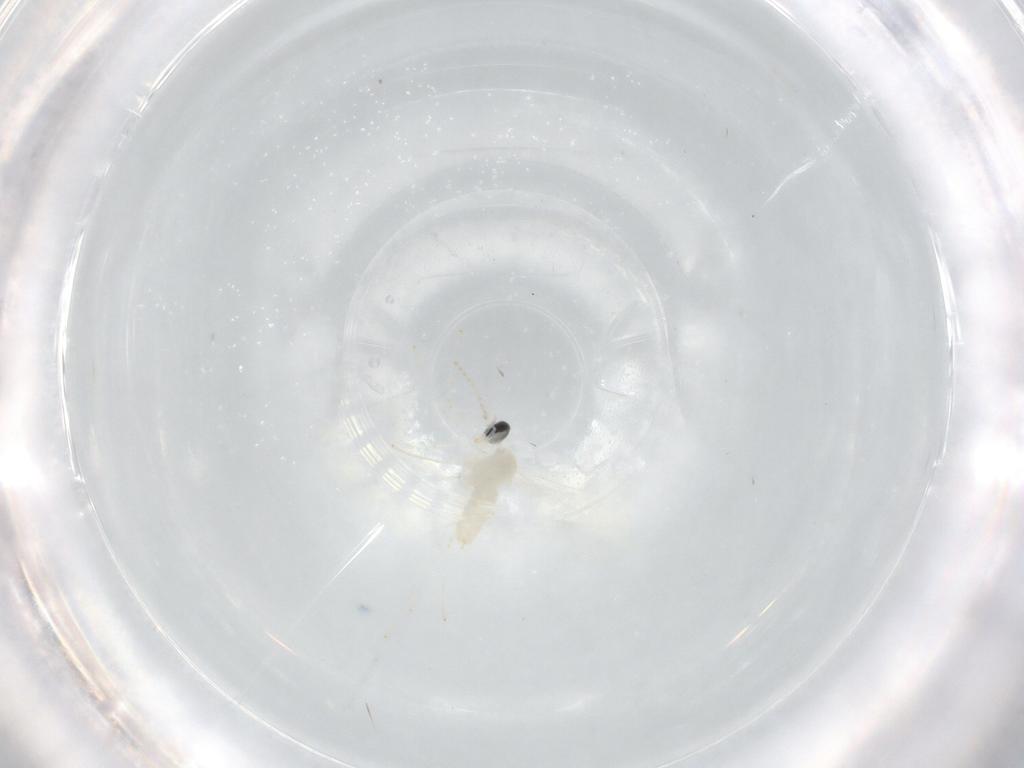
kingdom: Animalia
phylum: Arthropoda
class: Insecta
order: Diptera
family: Cecidomyiidae
